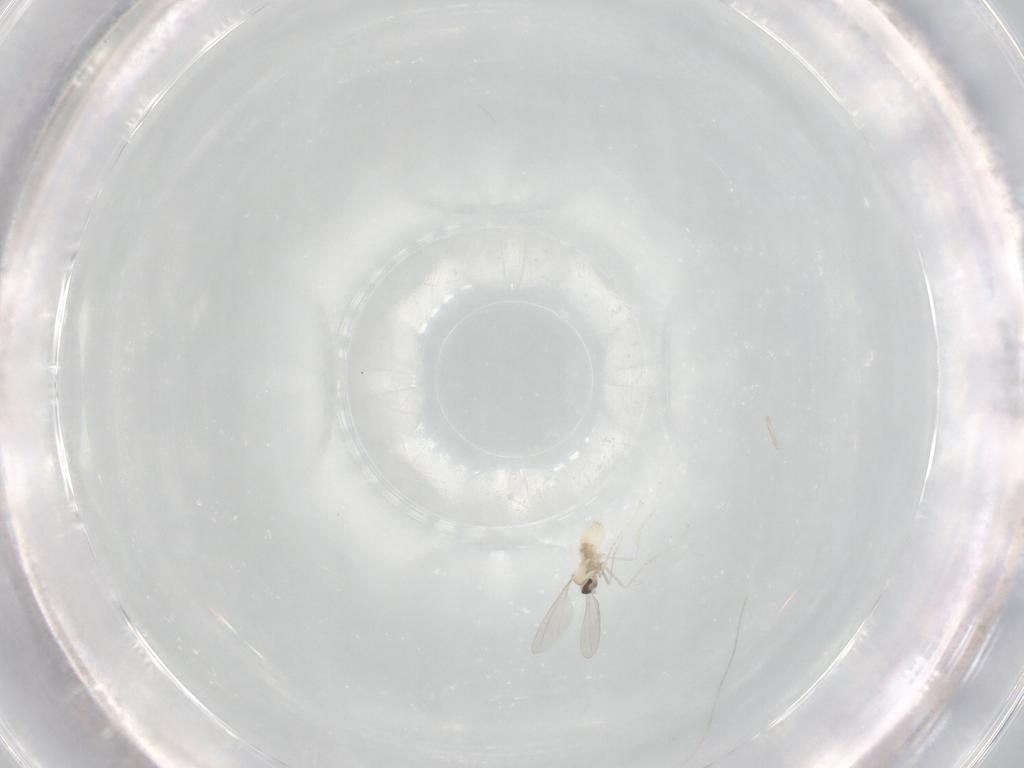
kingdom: Animalia
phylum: Arthropoda
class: Insecta
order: Diptera
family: Cecidomyiidae
